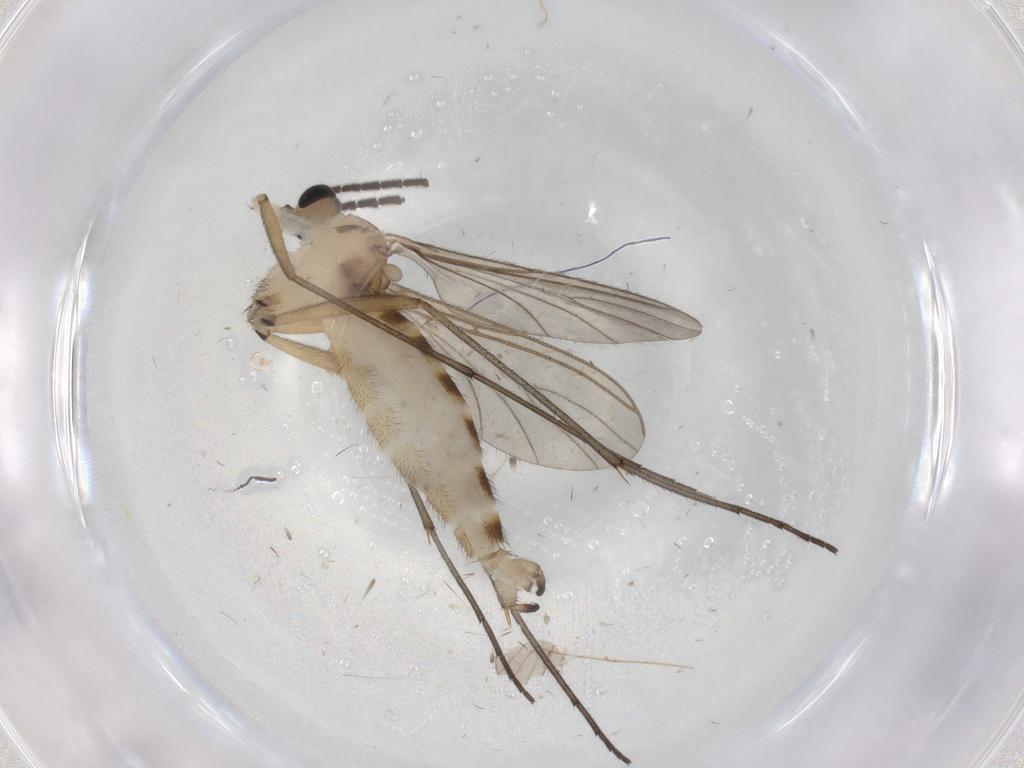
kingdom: Animalia
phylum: Arthropoda
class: Insecta
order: Diptera
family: Sciaridae
